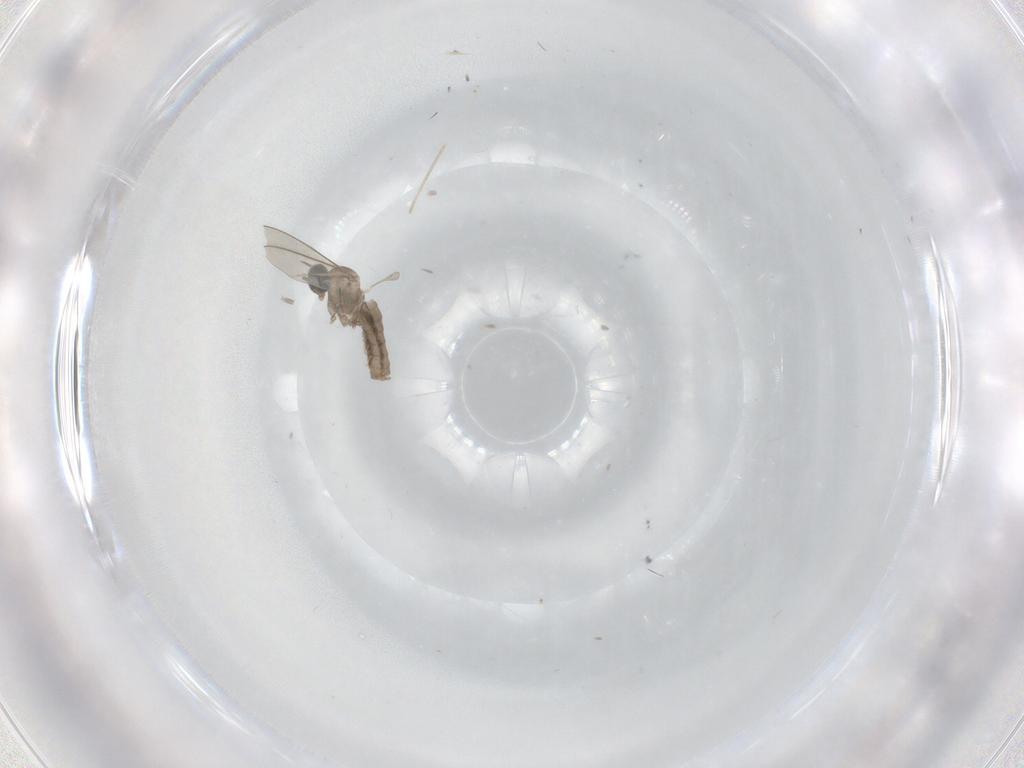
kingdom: Animalia
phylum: Arthropoda
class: Insecta
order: Diptera
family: Cecidomyiidae
